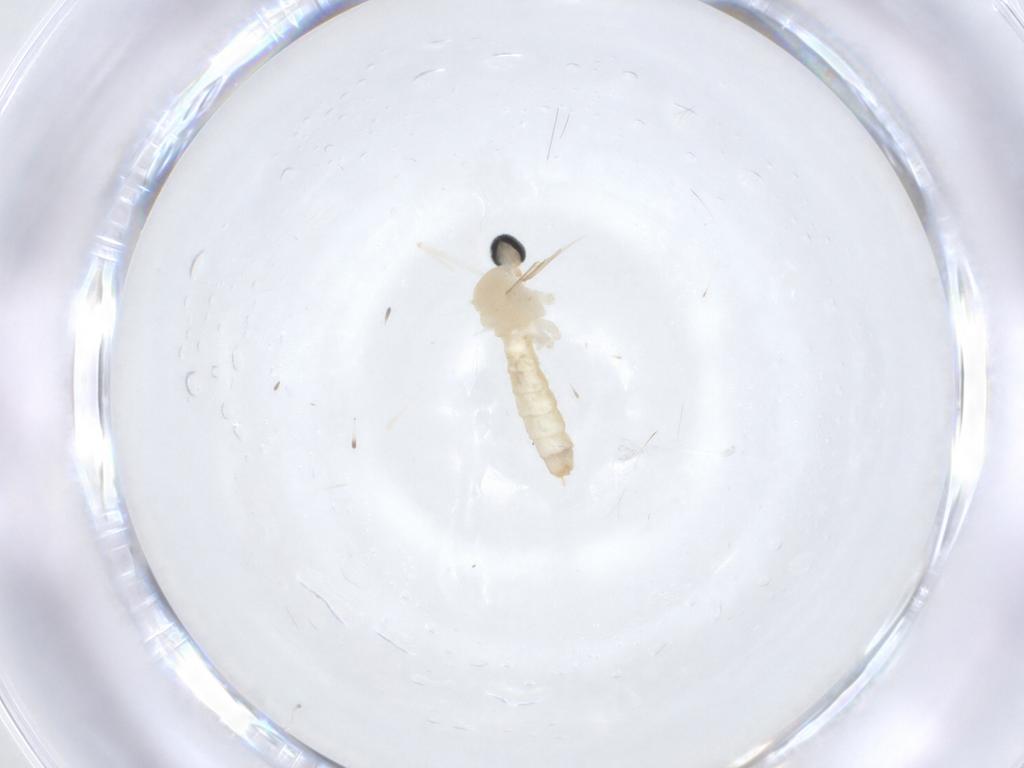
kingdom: Animalia
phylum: Arthropoda
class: Insecta
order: Diptera
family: Cecidomyiidae
